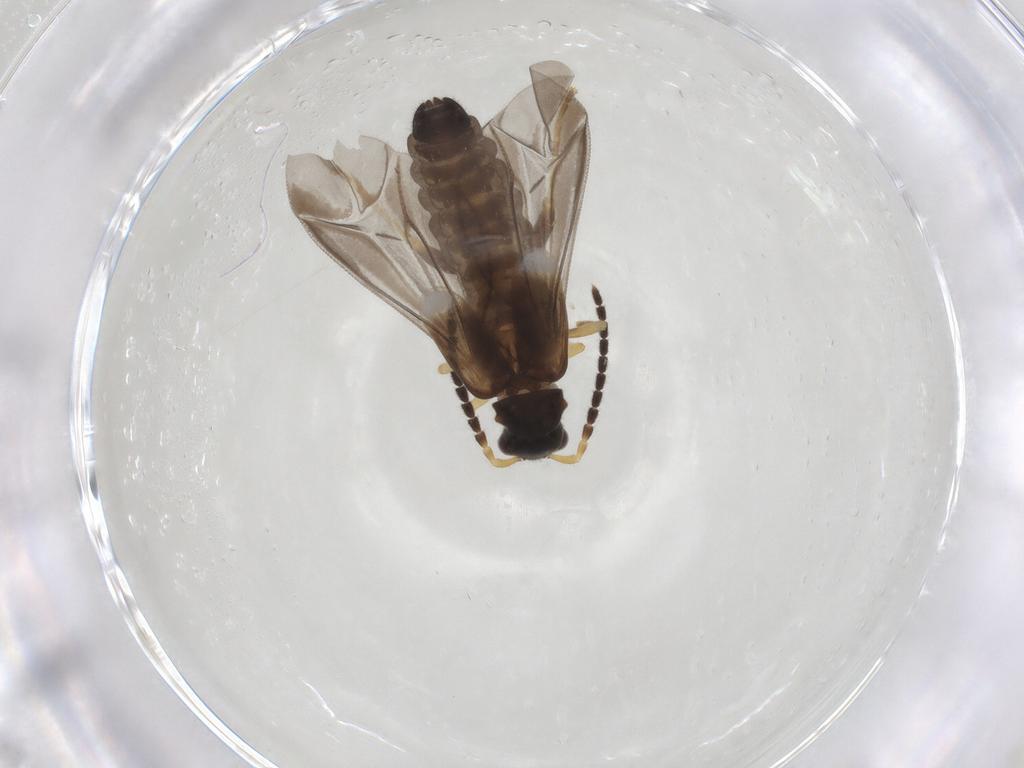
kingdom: Animalia
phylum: Arthropoda
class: Insecta
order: Coleoptera
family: Cantharidae
